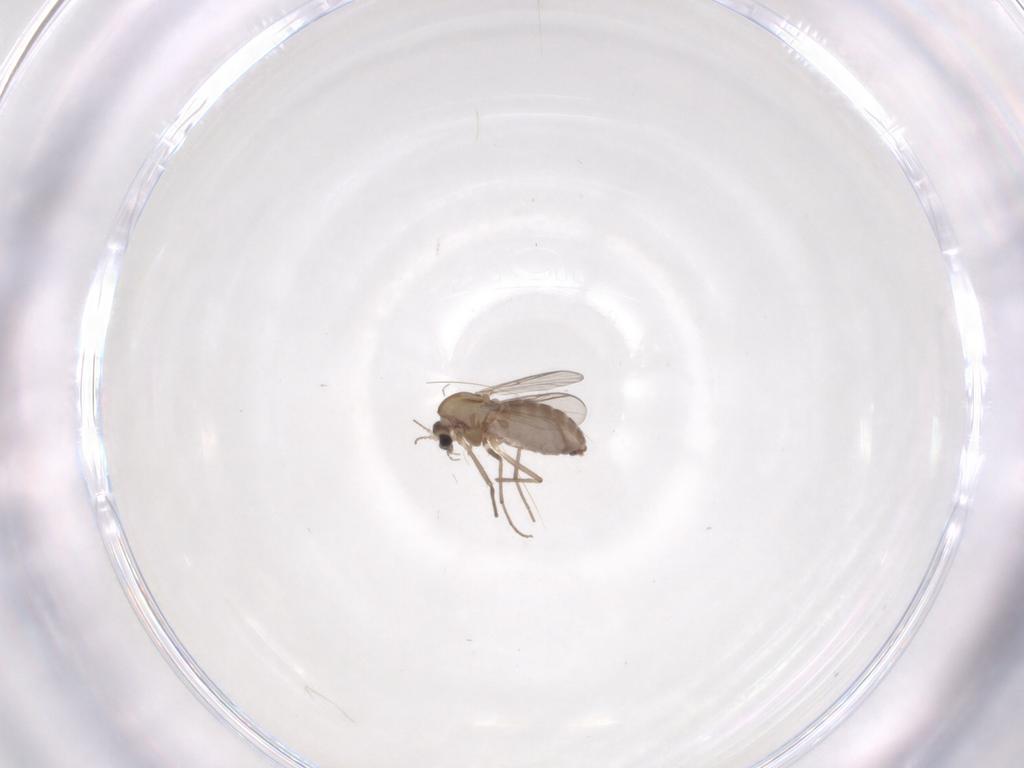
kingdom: Animalia
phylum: Arthropoda
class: Insecta
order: Diptera
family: Chironomidae
